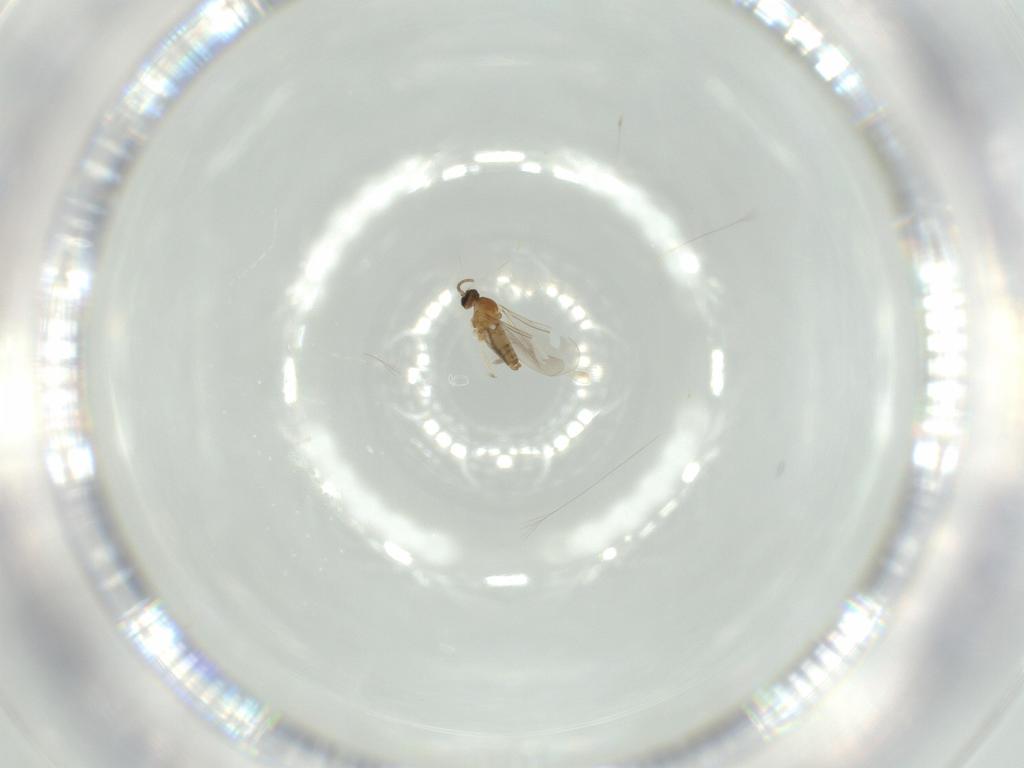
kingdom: Animalia
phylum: Arthropoda
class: Insecta
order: Diptera
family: Cecidomyiidae
